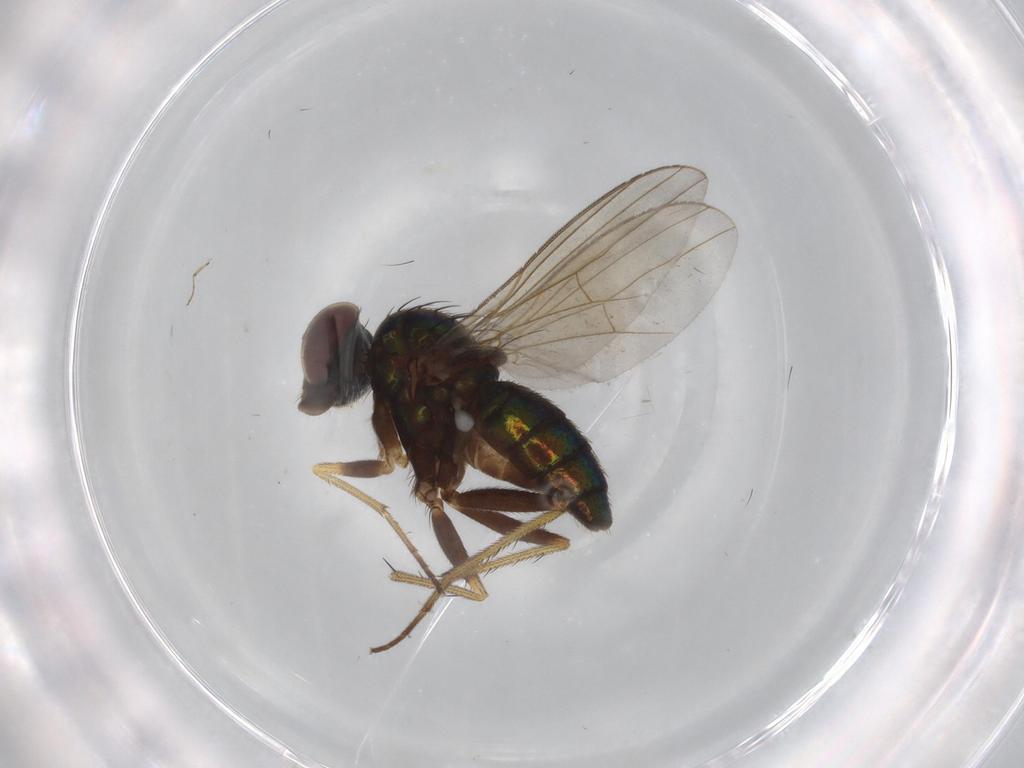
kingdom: Animalia
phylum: Arthropoda
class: Insecta
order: Diptera
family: Dolichopodidae
